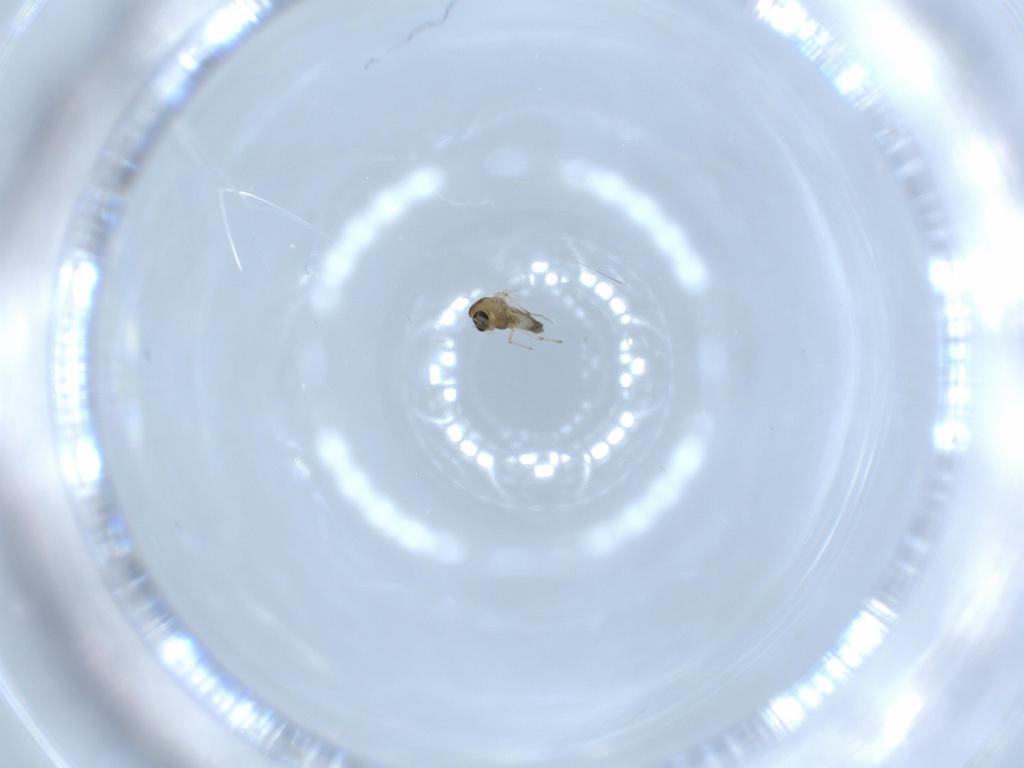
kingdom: Animalia
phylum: Arthropoda
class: Insecta
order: Diptera
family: Chironomidae
